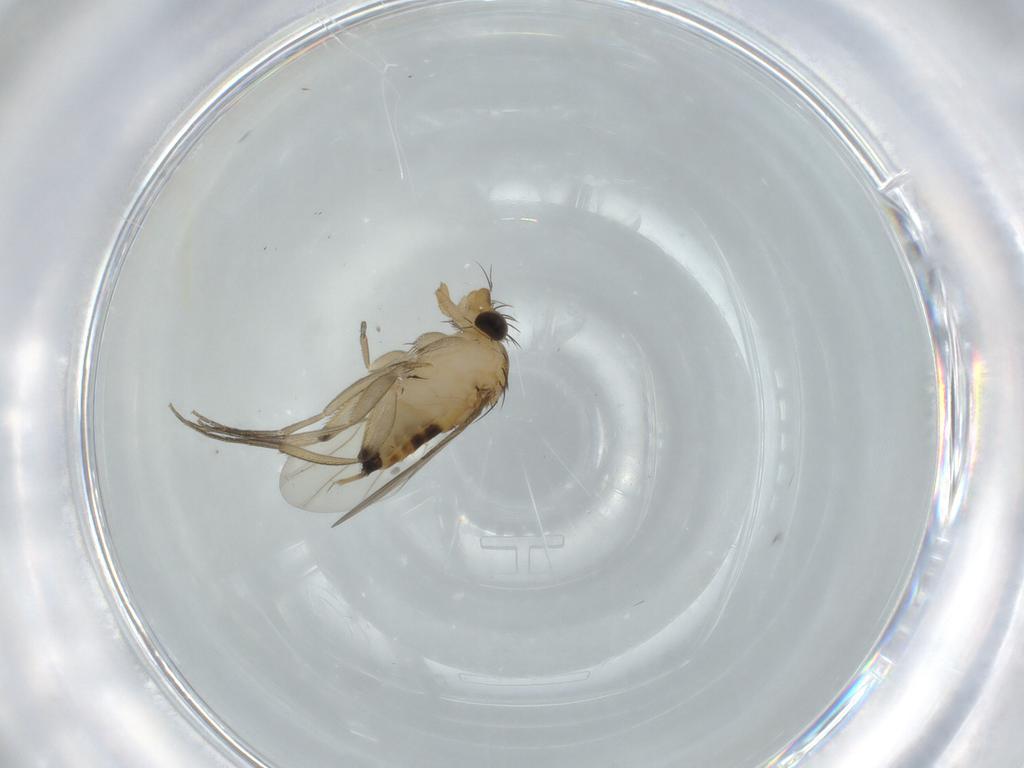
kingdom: Animalia
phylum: Arthropoda
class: Insecta
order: Diptera
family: Phoridae
